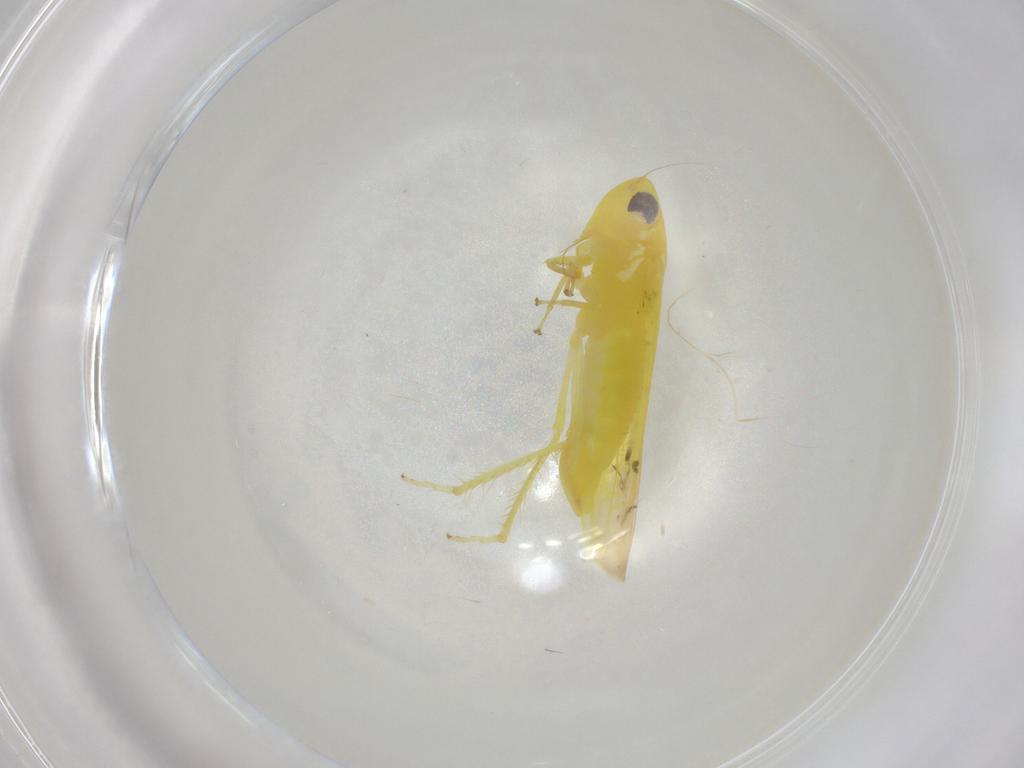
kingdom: Animalia
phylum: Arthropoda
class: Insecta
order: Hemiptera
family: Cicadellidae
